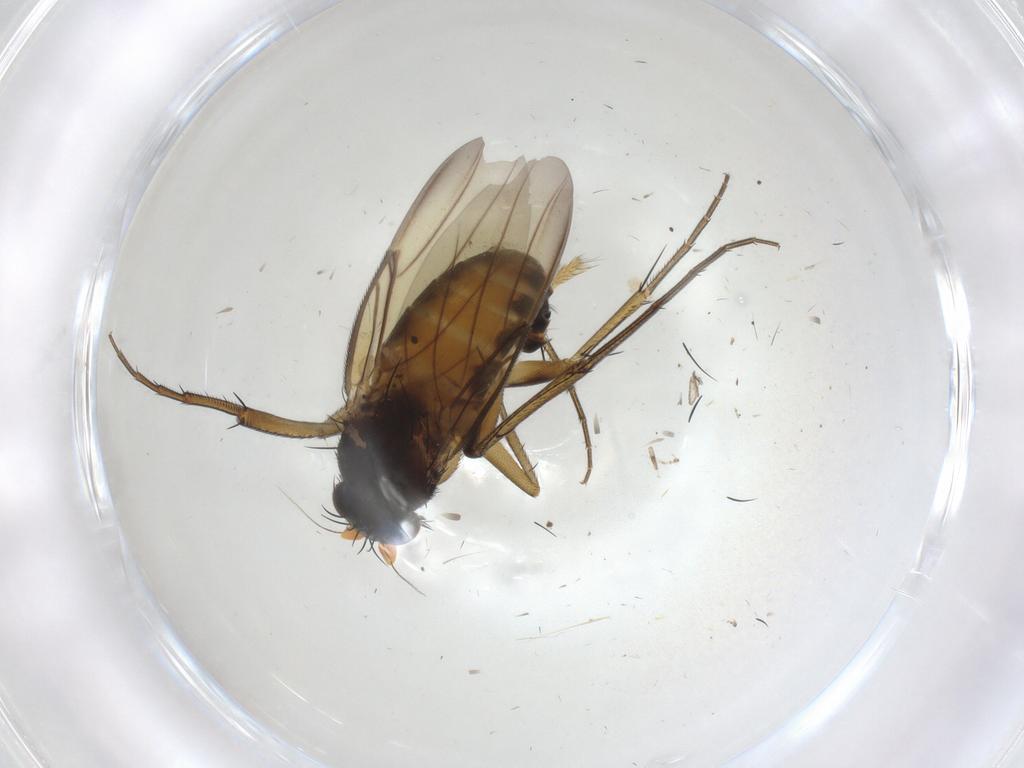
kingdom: Animalia
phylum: Arthropoda
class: Insecta
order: Diptera
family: Phoridae
